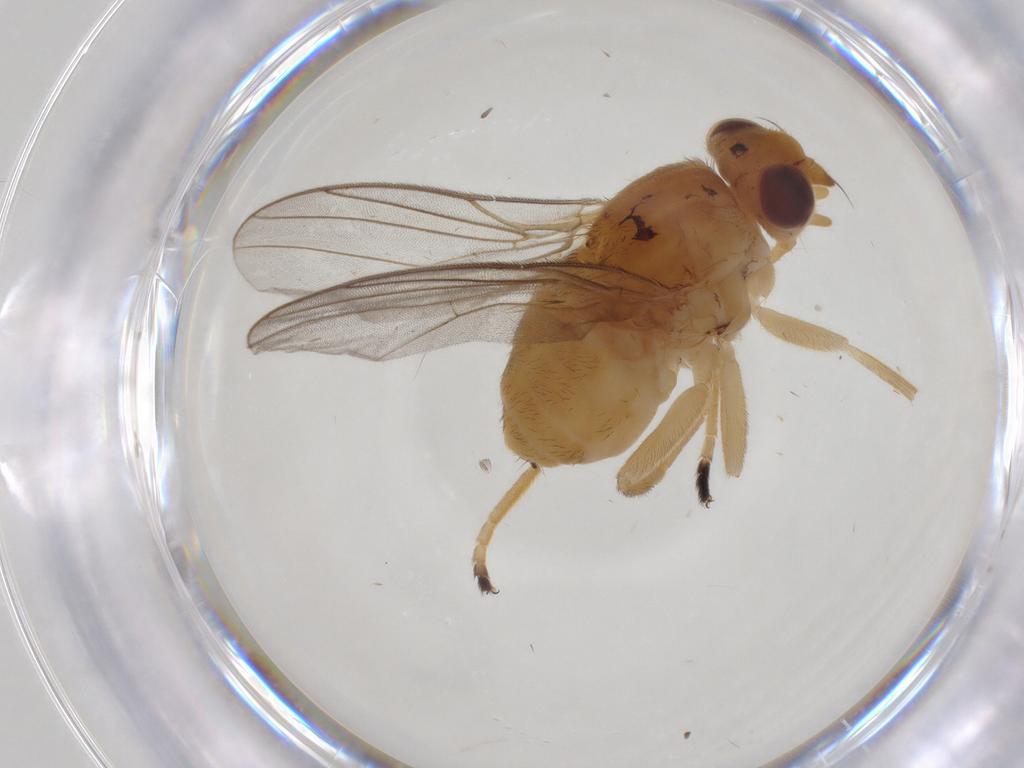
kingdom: Animalia
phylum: Arthropoda
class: Insecta
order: Diptera
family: Chloropidae
